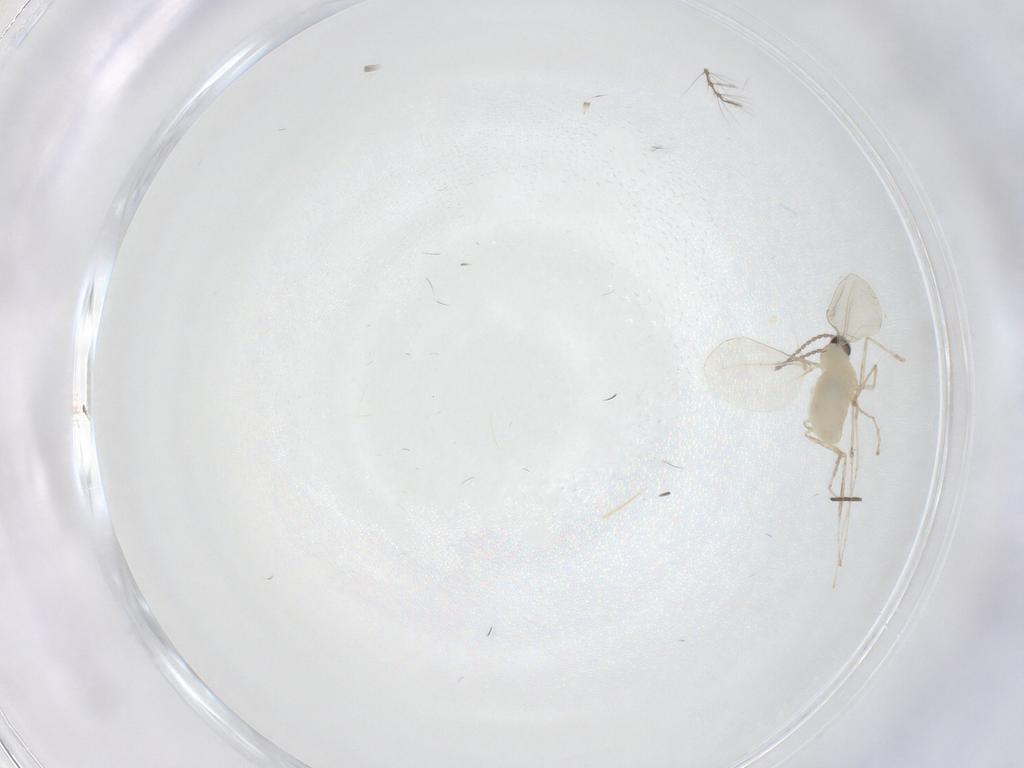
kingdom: Animalia
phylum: Arthropoda
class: Insecta
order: Diptera
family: Cecidomyiidae
